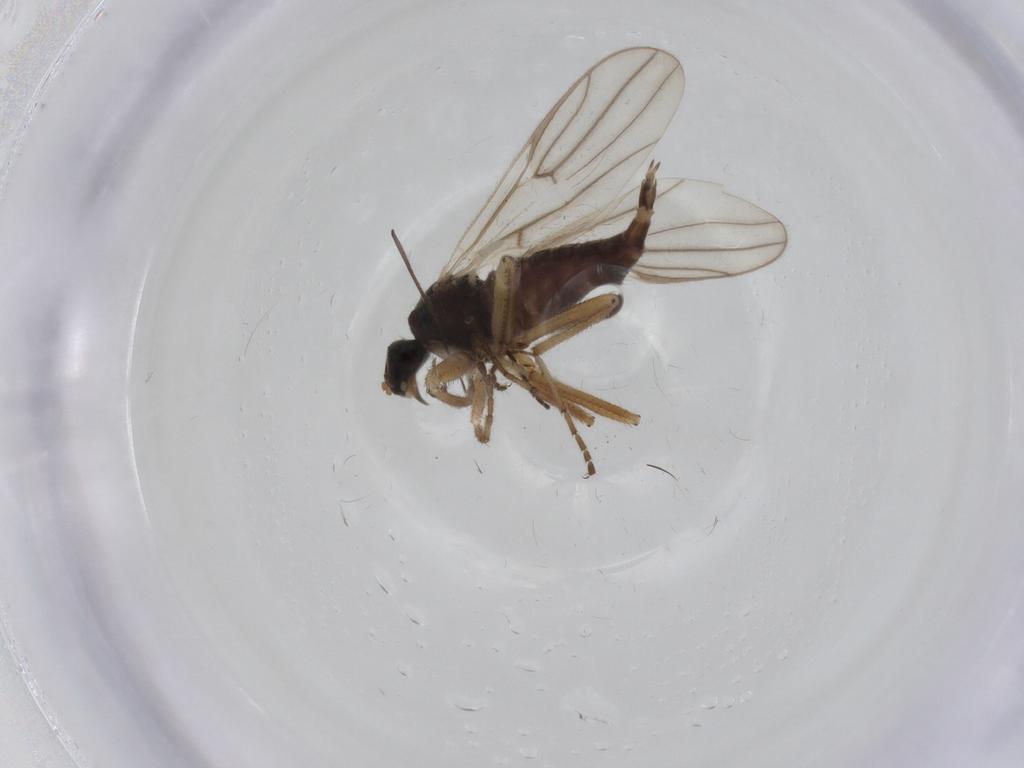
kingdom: Animalia
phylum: Arthropoda
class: Insecta
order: Diptera
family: Hybotidae
